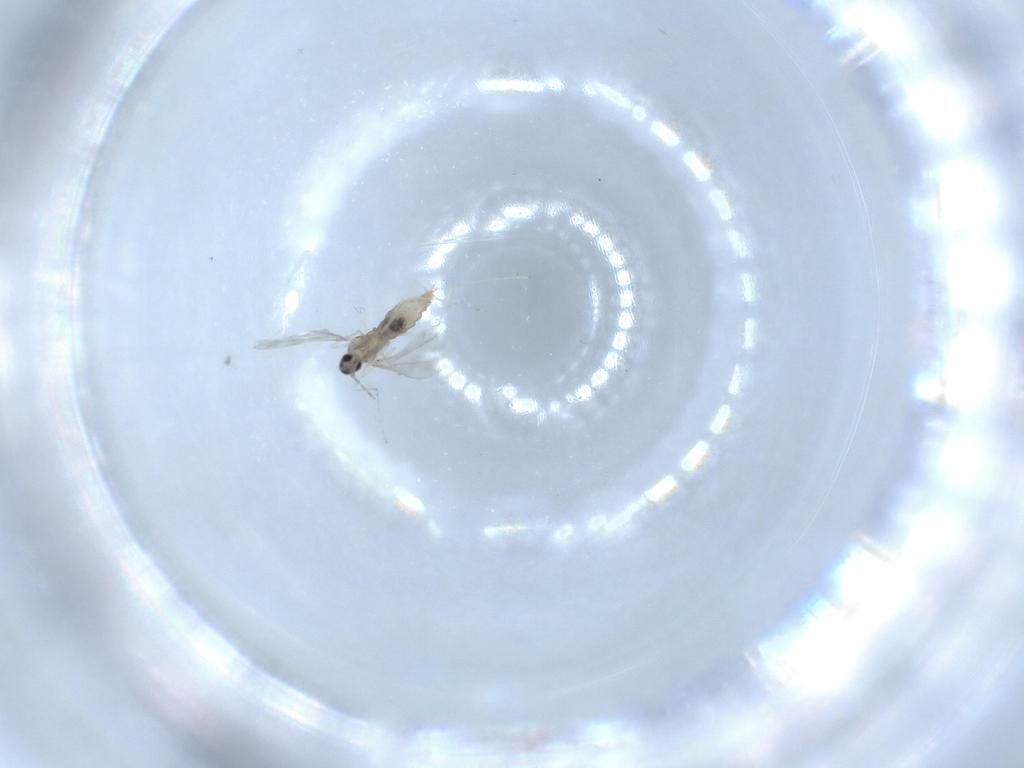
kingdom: Animalia
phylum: Arthropoda
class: Insecta
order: Diptera
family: Cecidomyiidae
